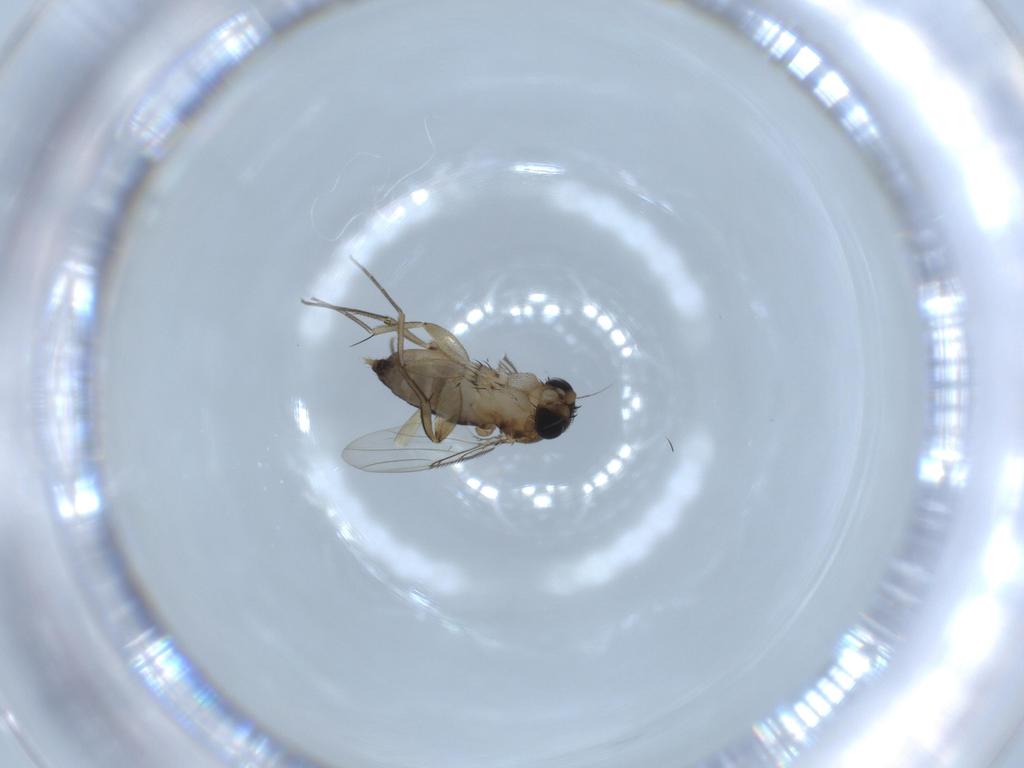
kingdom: Animalia
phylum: Arthropoda
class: Insecta
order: Diptera
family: Phoridae
